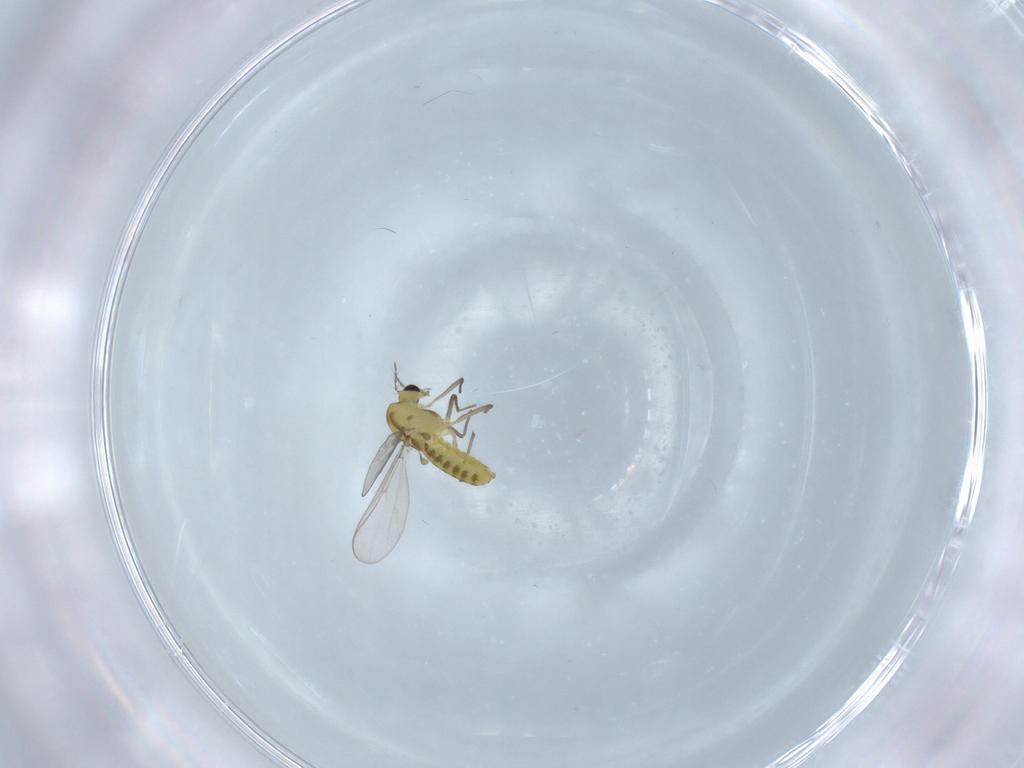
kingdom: Animalia
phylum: Arthropoda
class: Insecta
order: Diptera
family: Chironomidae
